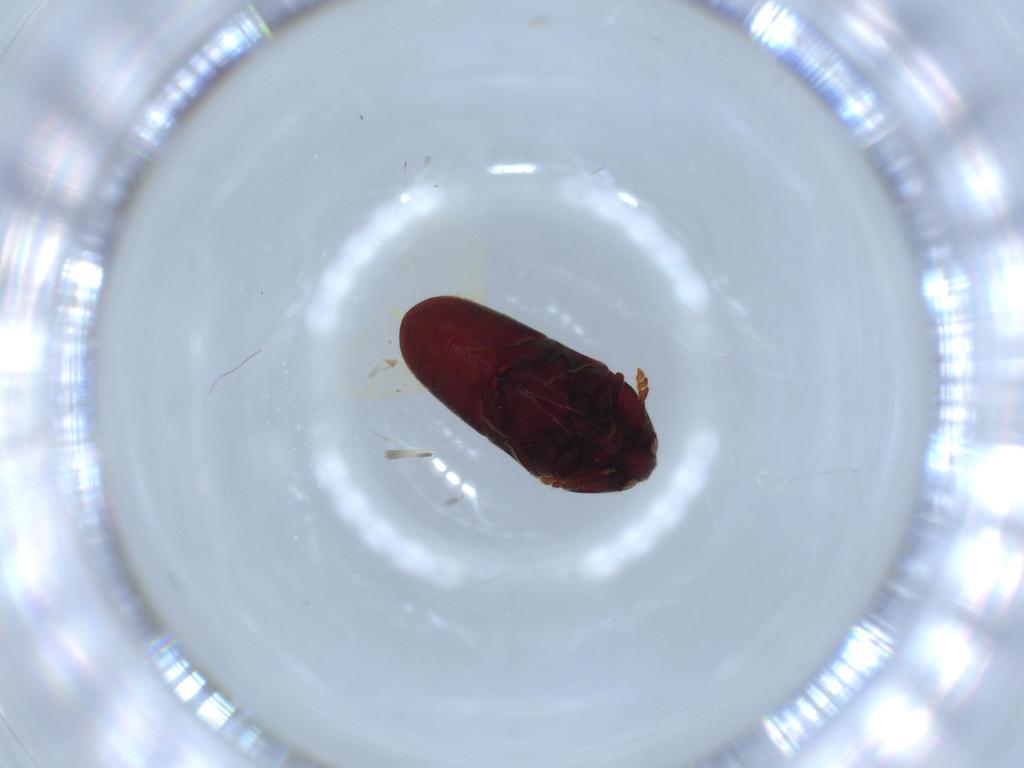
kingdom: Animalia
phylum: Arthropoda
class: Insecta
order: Coleoptera
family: Throscidae
